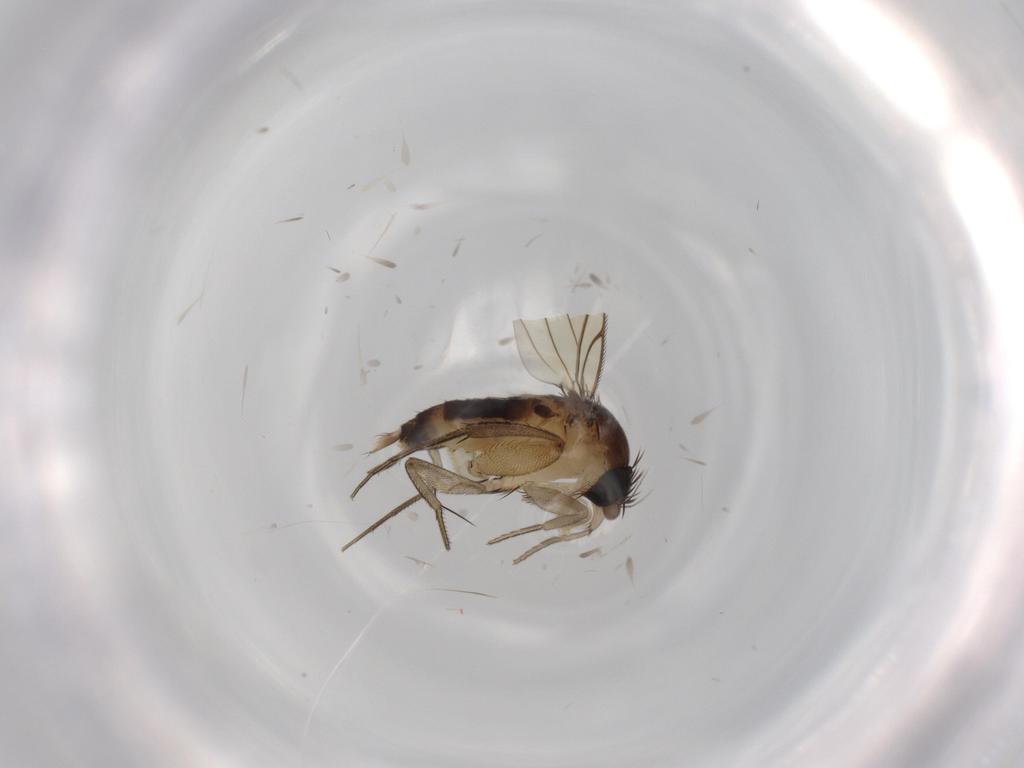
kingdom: Animalia
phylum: Arthropoda
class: Insecta
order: Diptera
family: Phoridae
